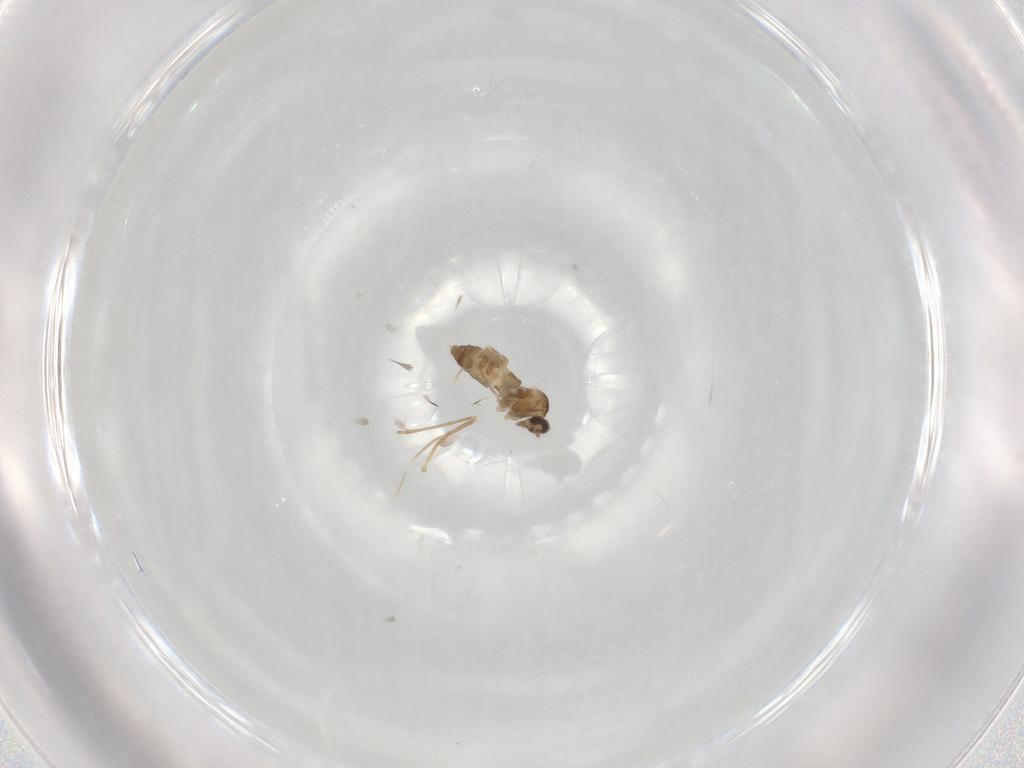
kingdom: Animalia
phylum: Arthropoda
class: Insecta
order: Diptera
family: Cecidomyiidae
